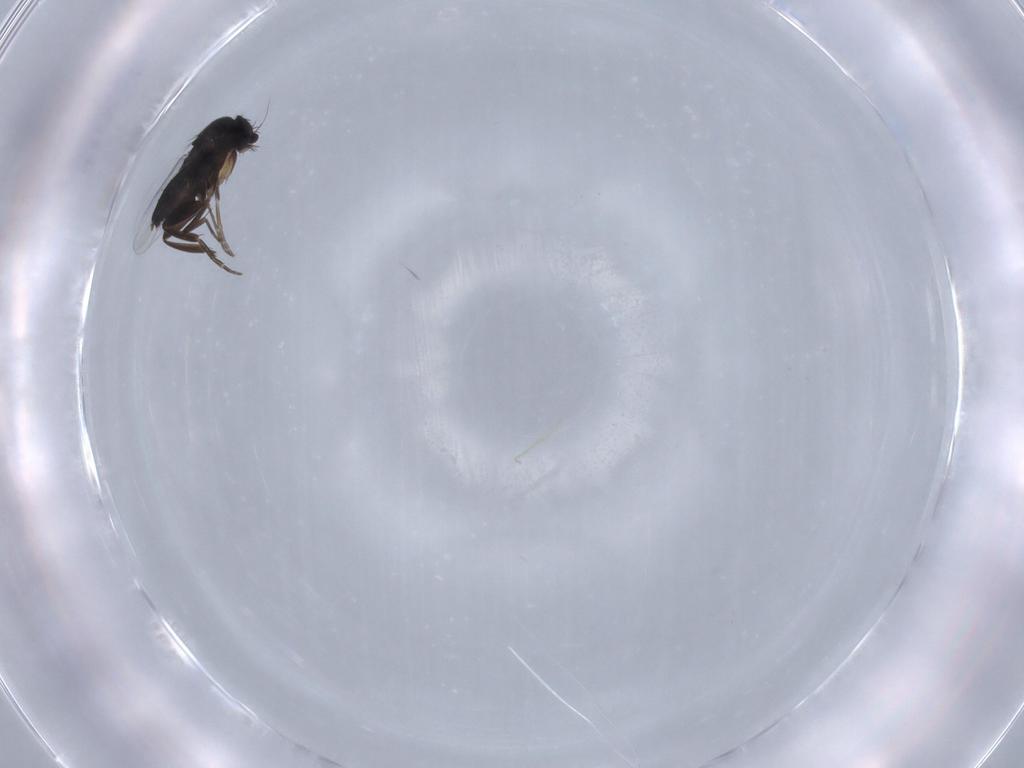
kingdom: Animalia
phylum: Arthropoda
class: Insecta
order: Diptera
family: Phoridae
